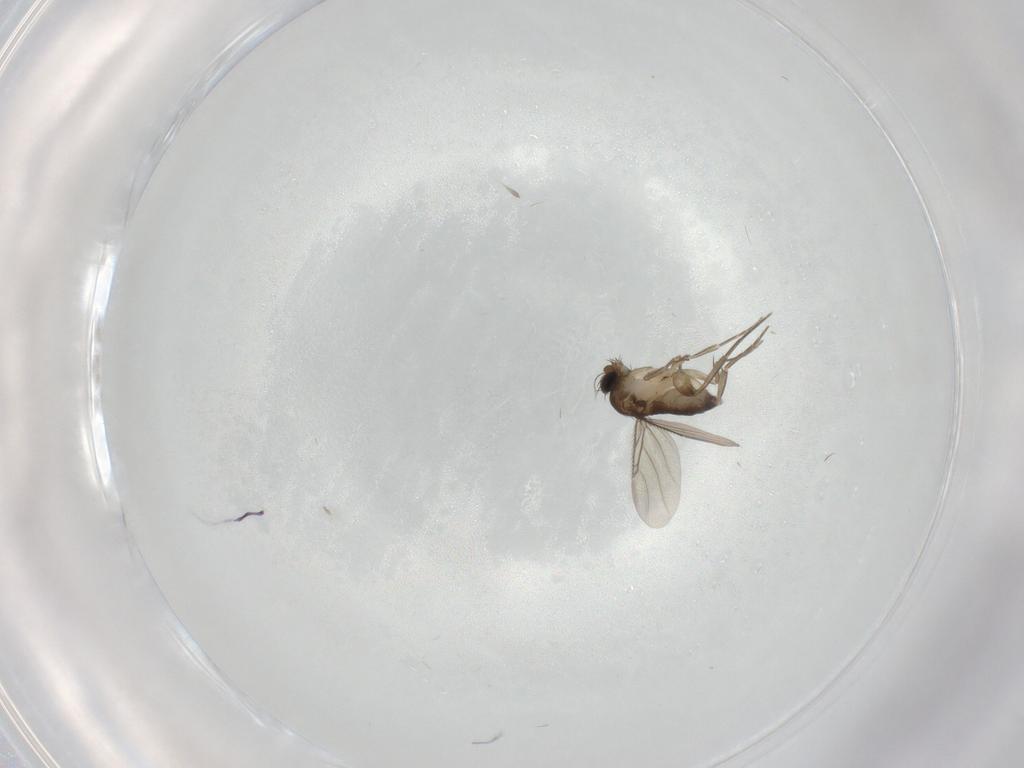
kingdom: Animalia
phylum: Arthropoda
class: Insecta
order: Diptera
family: Phoridae
